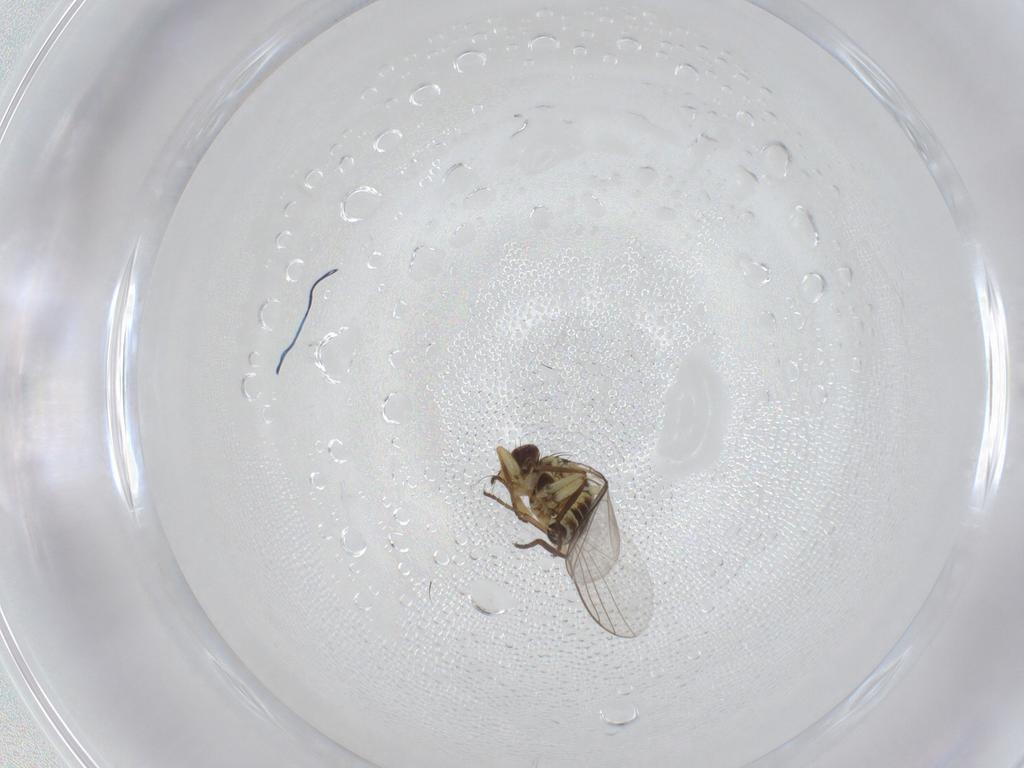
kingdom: Animalia
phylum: Arthropoda
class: Insecta
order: Diptera
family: Agromyzidae
